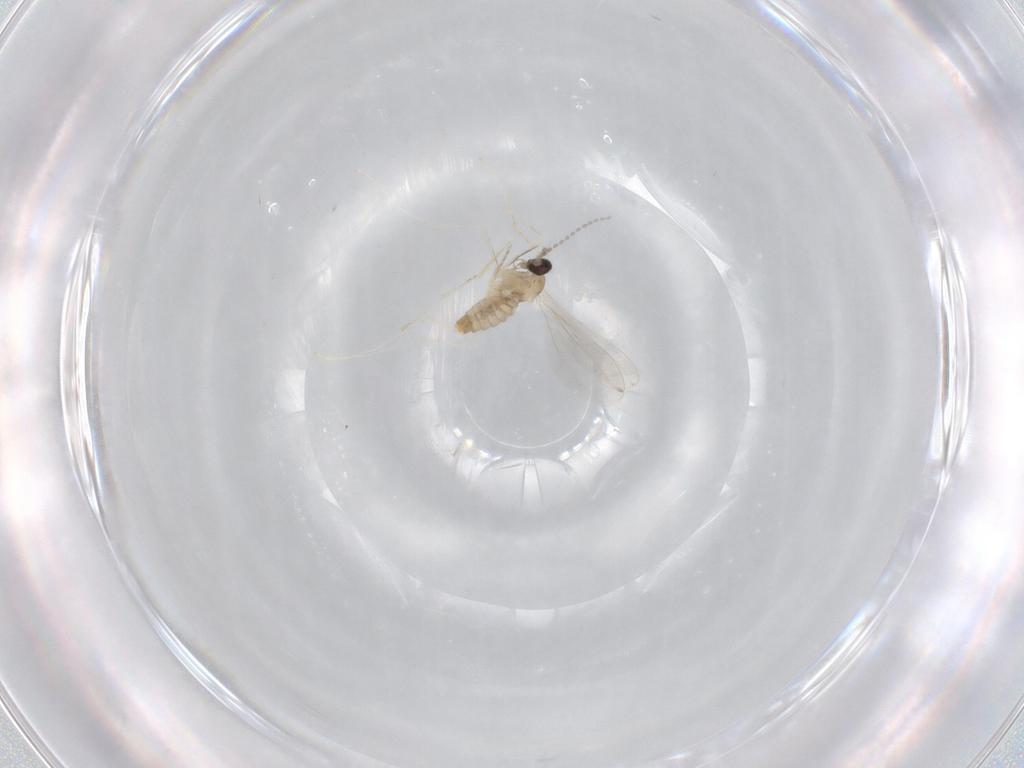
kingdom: Animalia
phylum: Arthropoda
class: Insecta
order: Diptera
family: Cecidomyiidae
